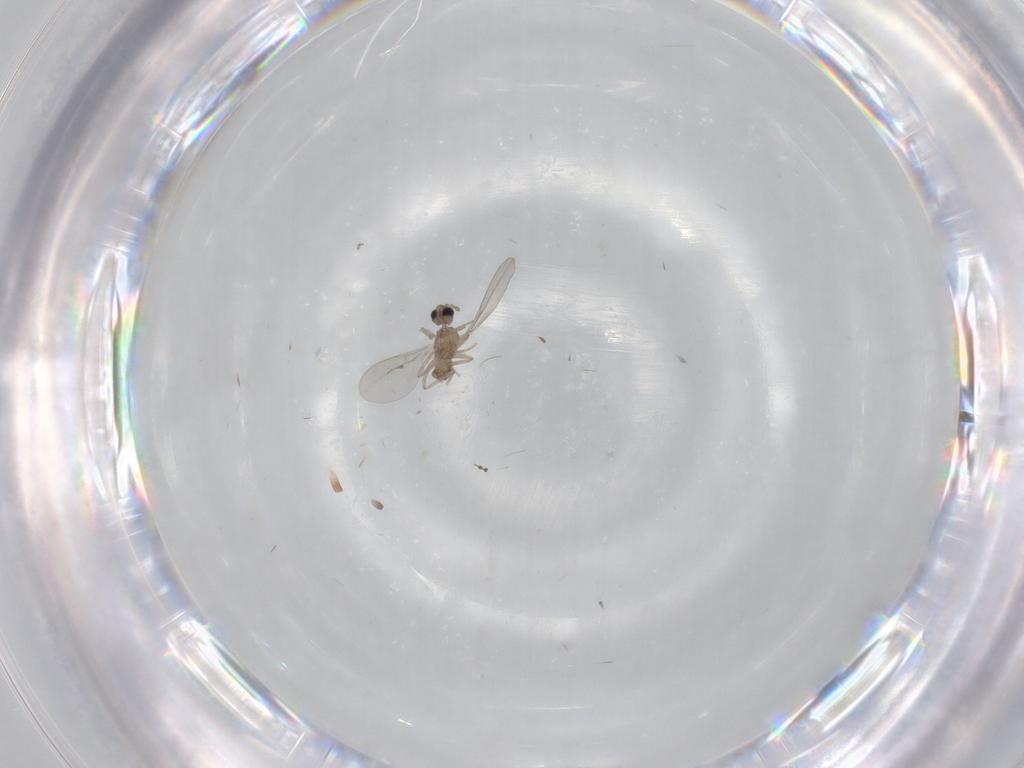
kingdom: Animalia
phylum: Arthropoda
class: Insecta
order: Diptera
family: Cecidomyiidae
